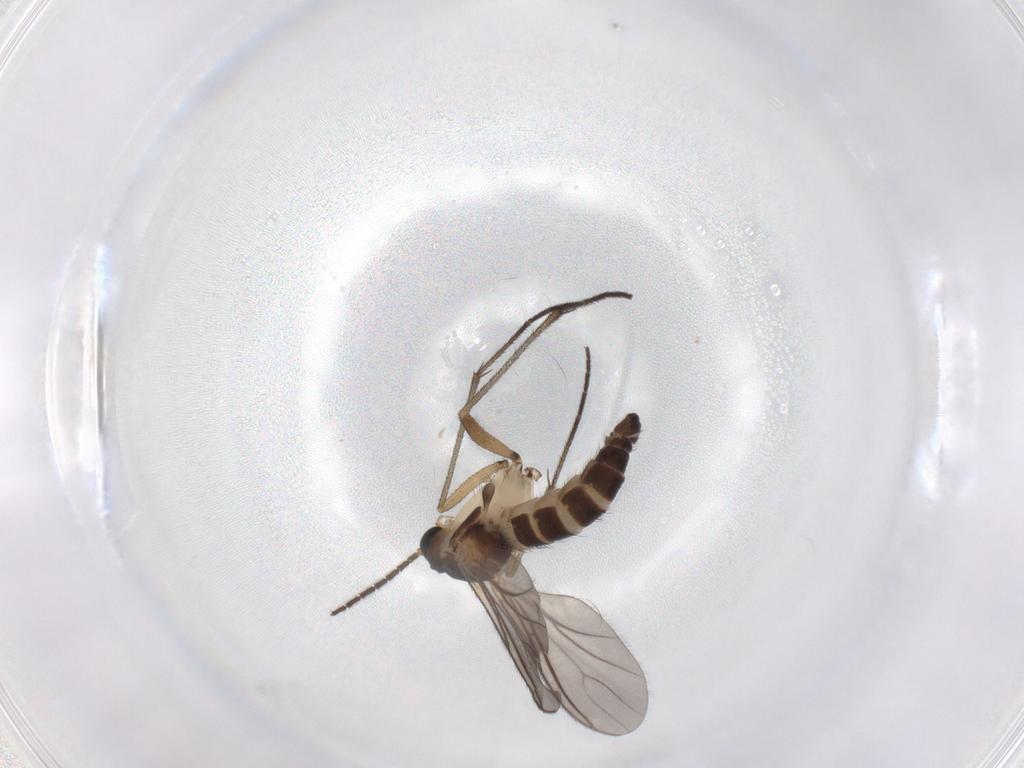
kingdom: Animalia
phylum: Arthropoda
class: Insecta
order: Diptera
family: Sciaridae
